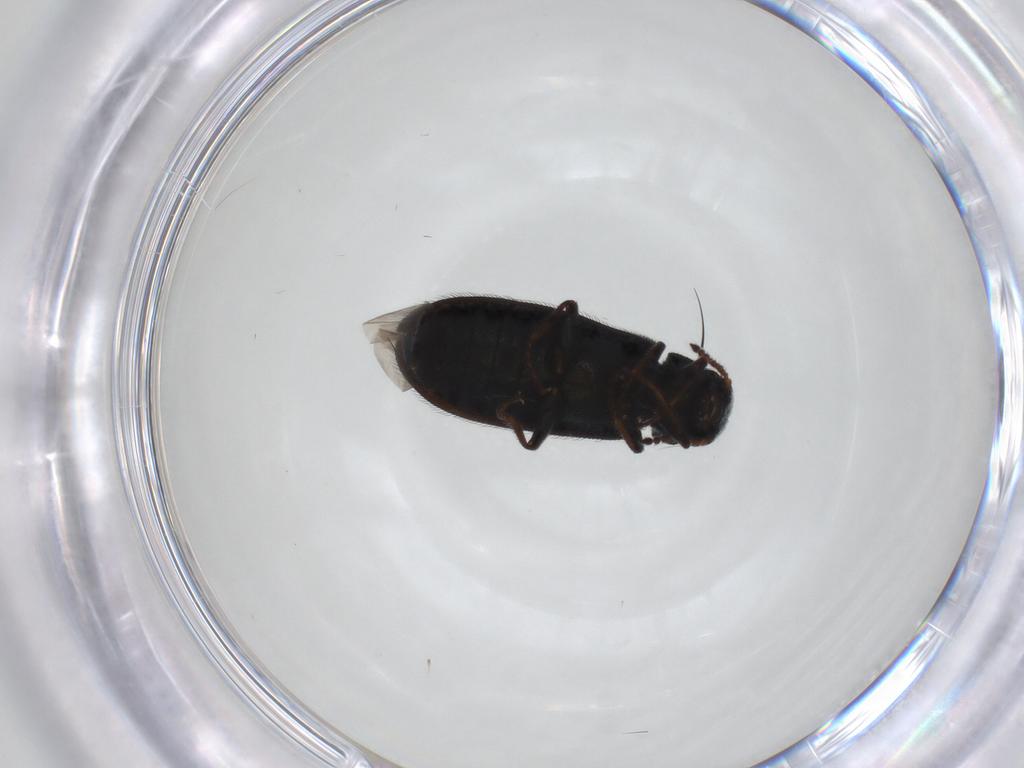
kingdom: Animalia
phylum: Arthropoda
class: Insecta
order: Coleoptera
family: Melyridae
